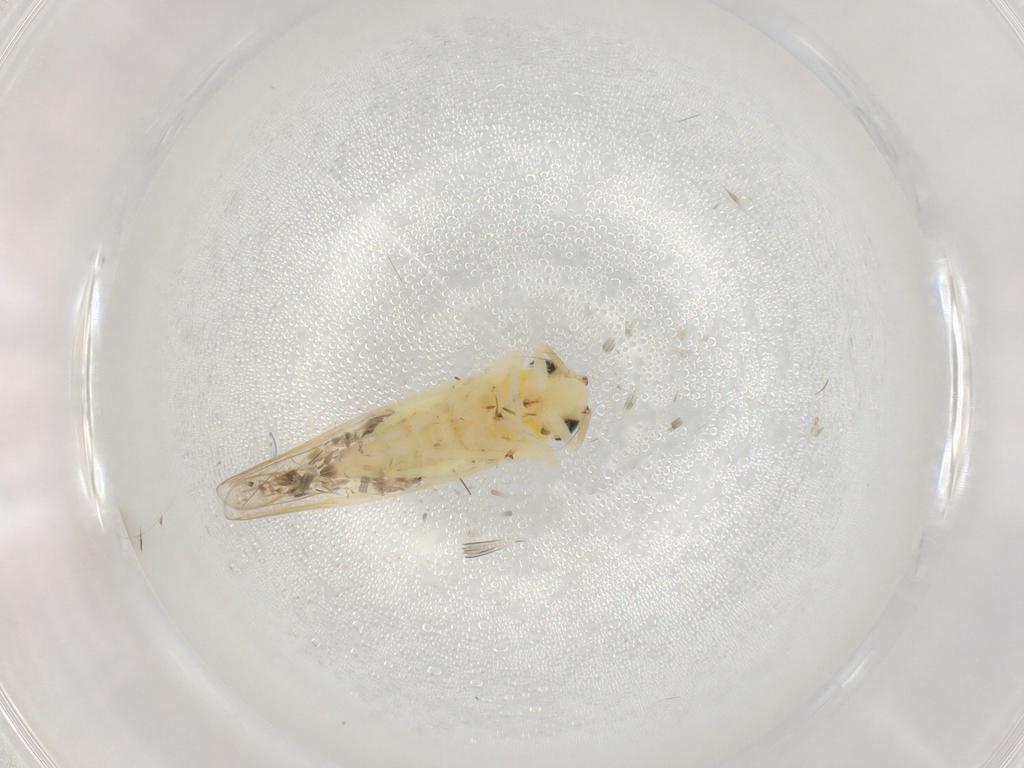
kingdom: Animalia
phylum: Arthropoda
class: Insecta
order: Hemiptera
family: Cicadellidae
